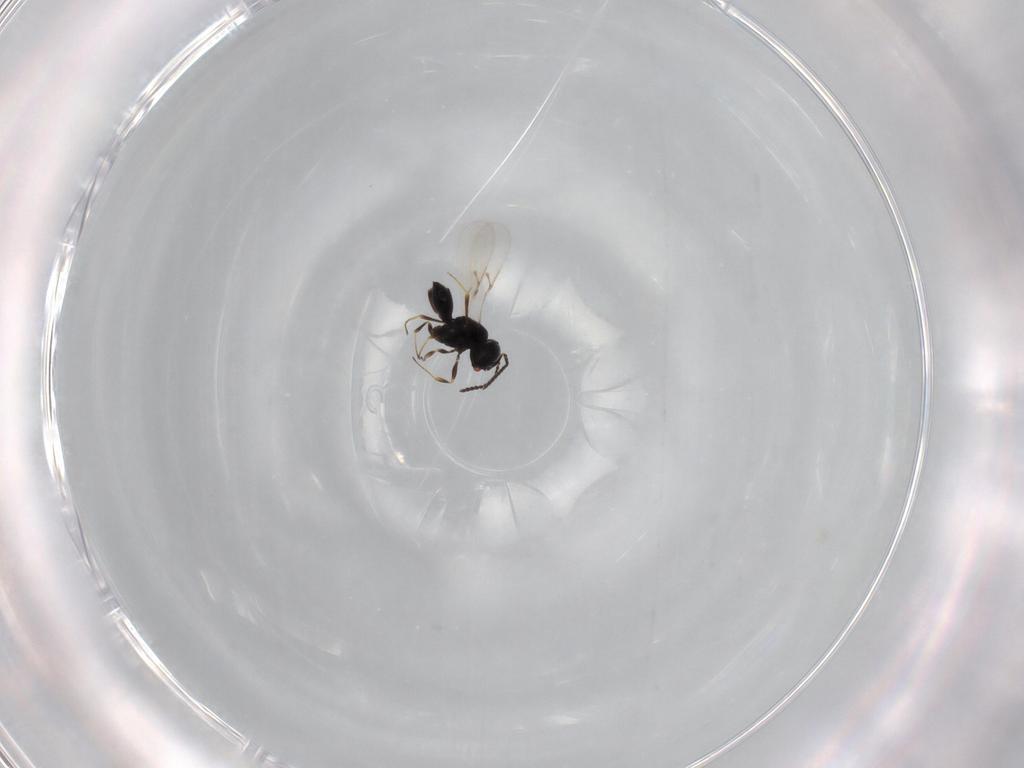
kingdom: Animalia
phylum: Arthropoda
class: Insecta
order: Hymenoptera
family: Scelionidae
